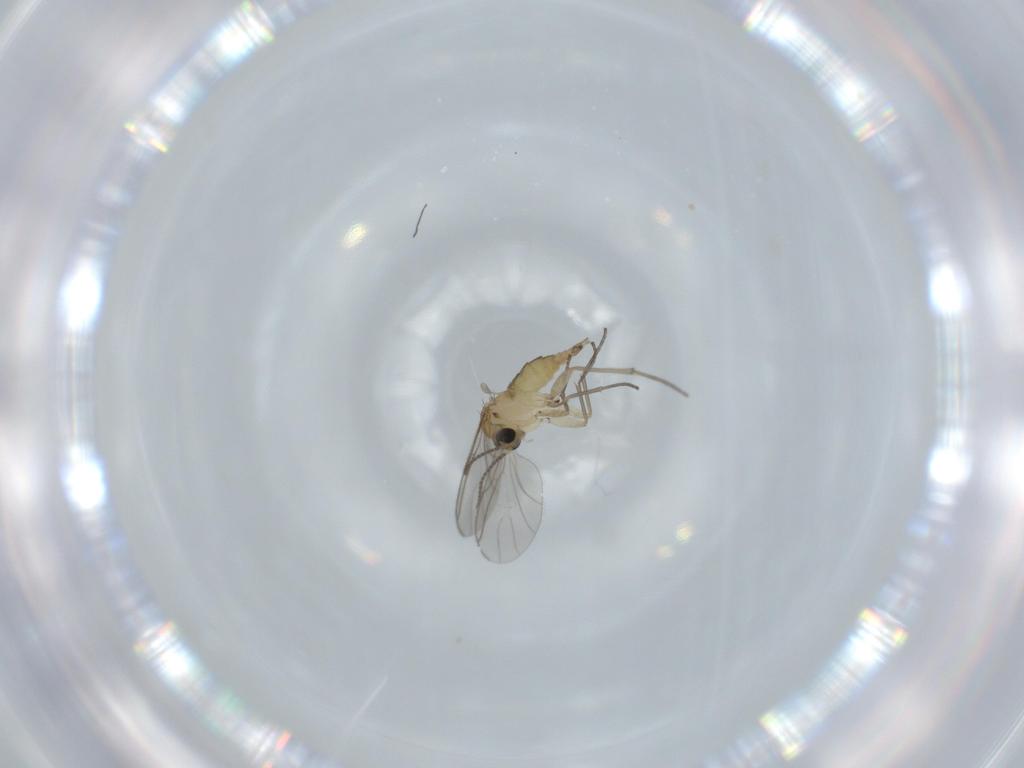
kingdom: Animalia
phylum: Arthropoda
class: Insecta
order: Diptera
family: Sciaridae
